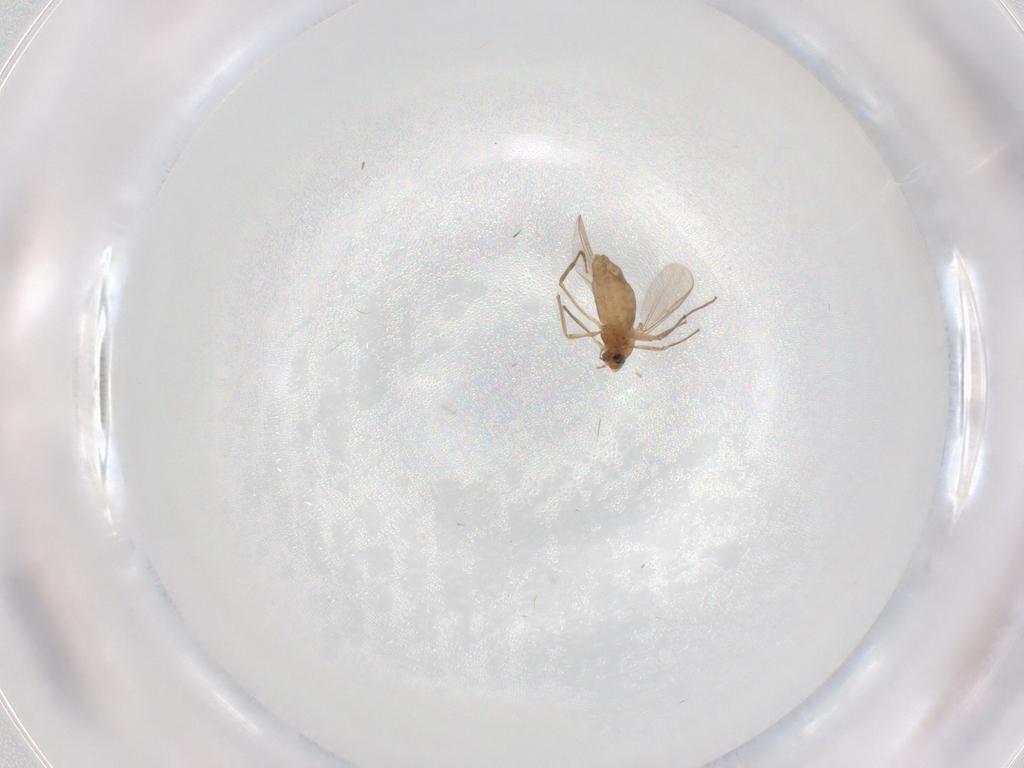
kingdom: Animalia
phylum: Arthropoda
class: Insecta
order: Diptera
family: Chironomidae
